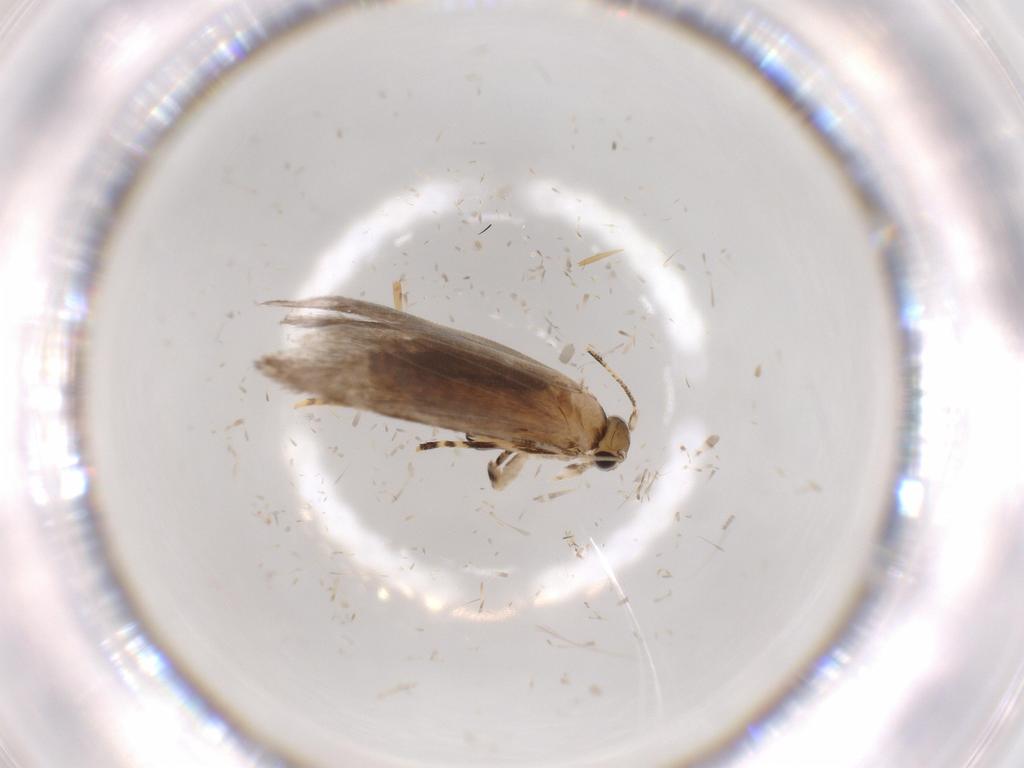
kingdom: Animalia
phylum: Arthropoda
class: Insecta
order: Lepidoptera
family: Tineidae
